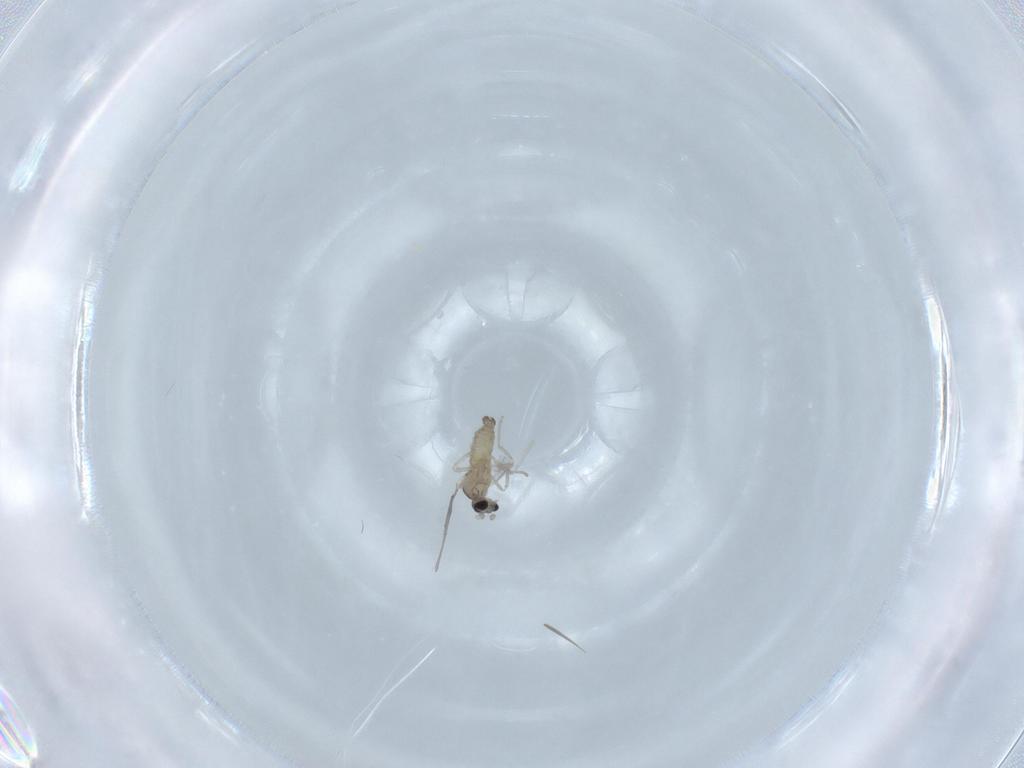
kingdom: Animalia
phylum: Arthropoda
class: Insecta
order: Diptera
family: Cecidomyiidae
